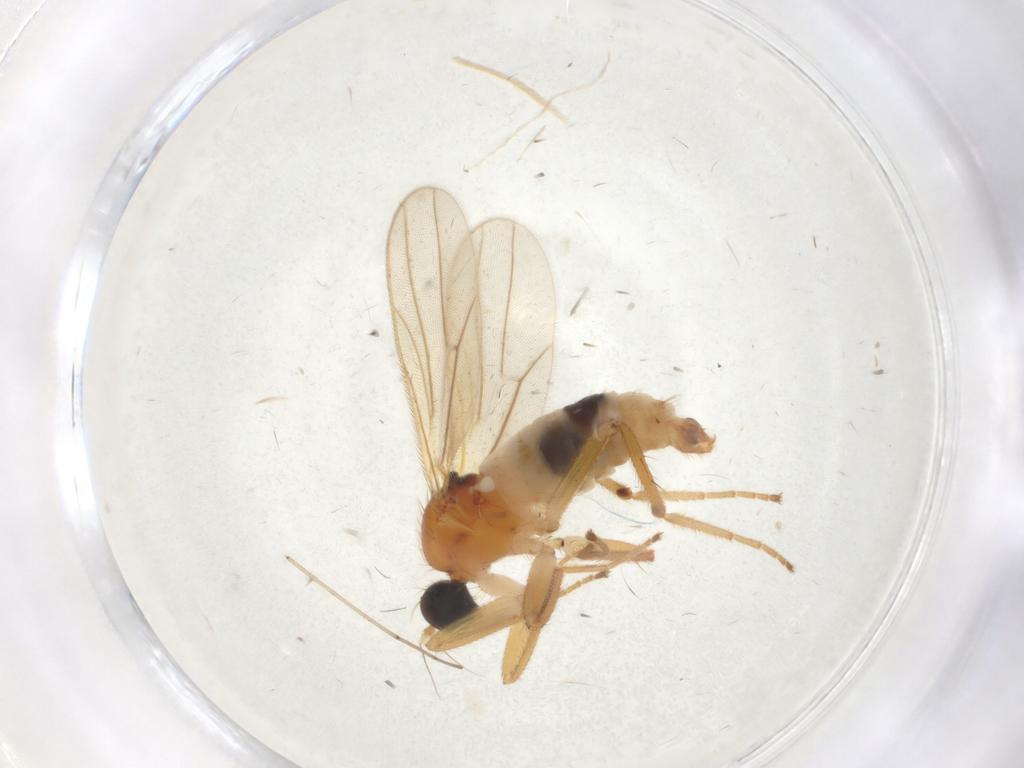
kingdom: Animalia
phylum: Arthropoda
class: Insecta
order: Diptera
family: Hybotidae
